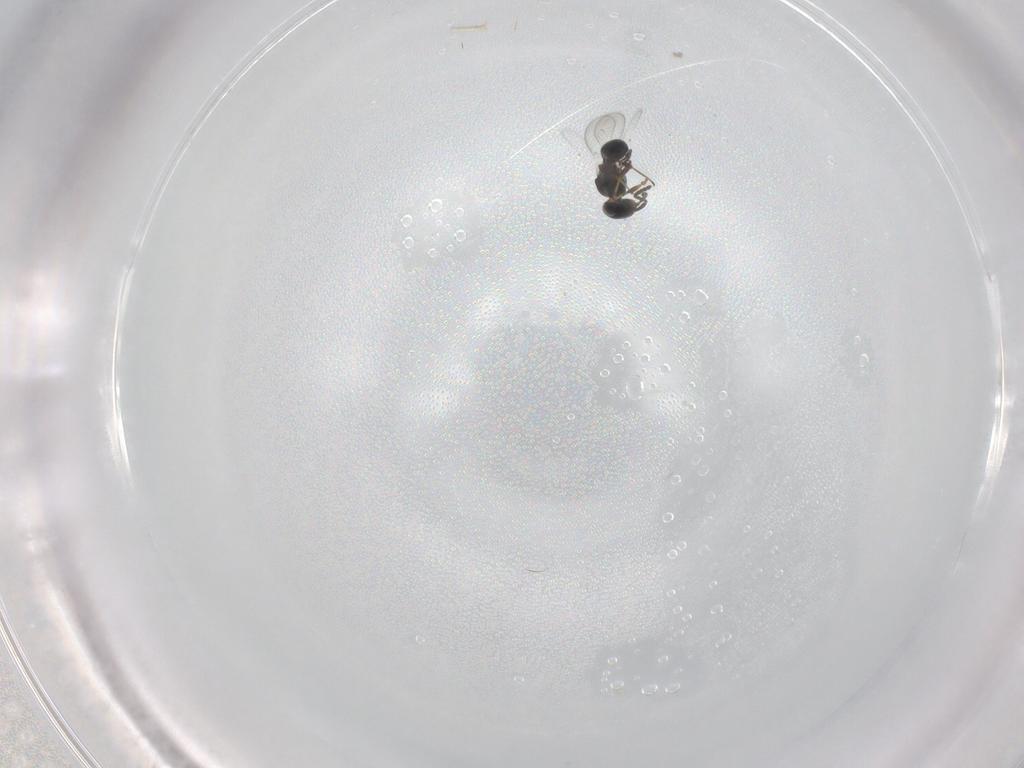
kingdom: Animalia
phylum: Arthropoda
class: Insecta
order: Hymenoptera
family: Platygastridae
